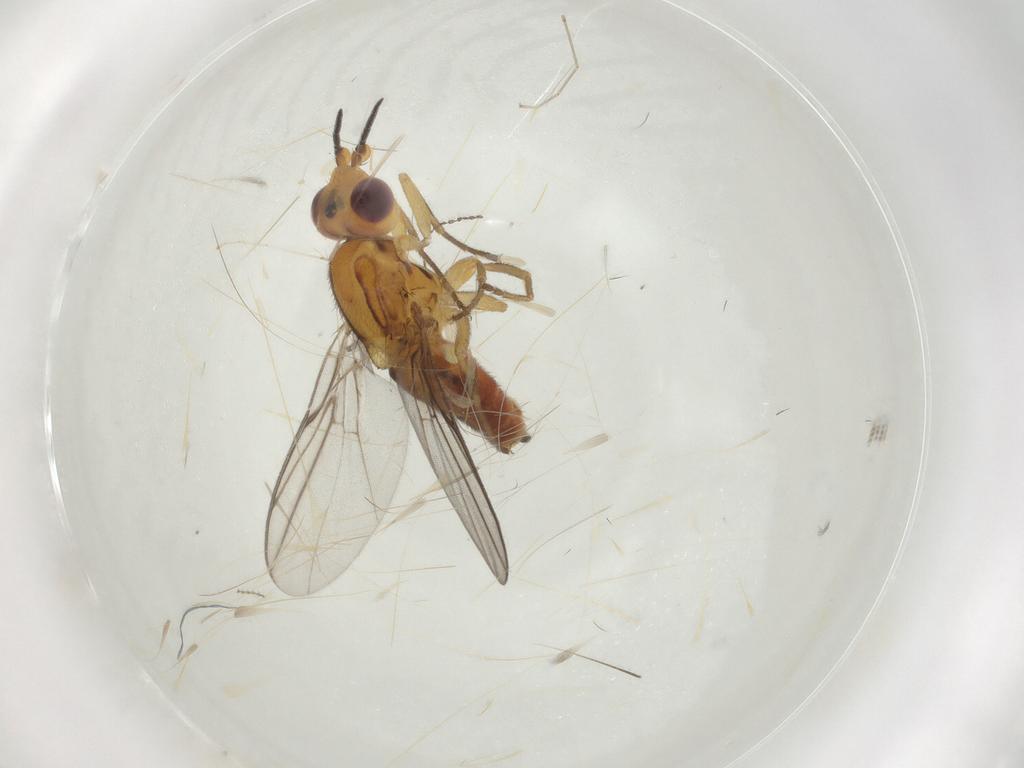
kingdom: Animalia
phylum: Arthropoda
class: Insecta
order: Diptera
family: Chloropidae
